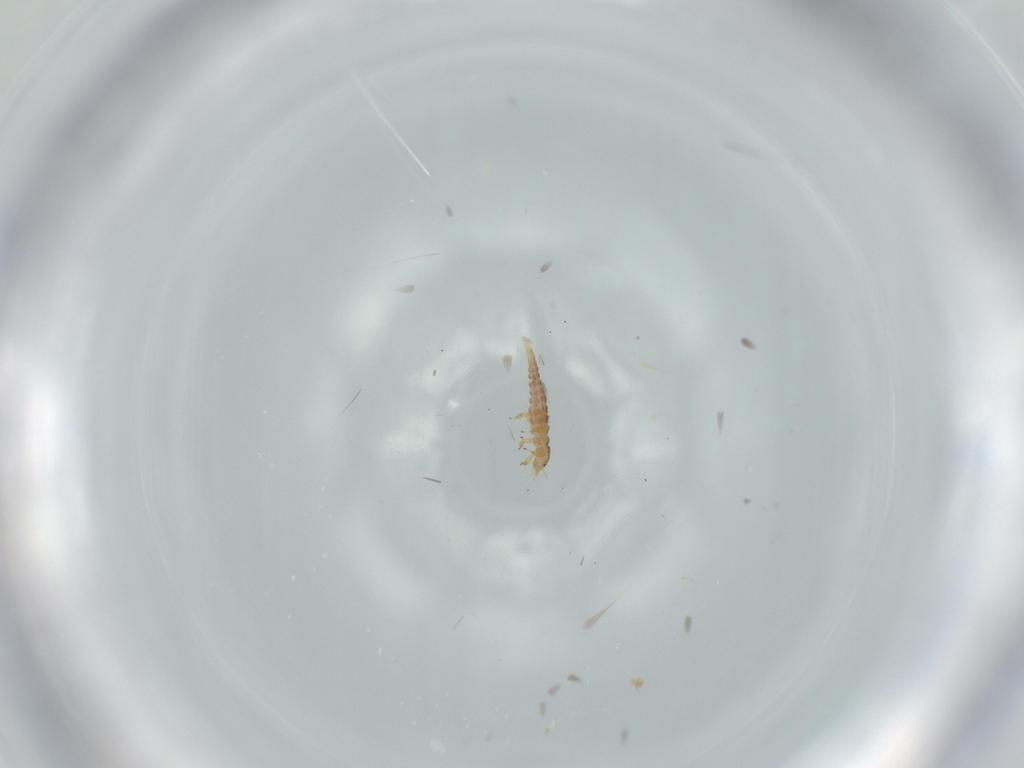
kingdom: Animalia
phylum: Arthropoda
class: Insecta
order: Neuroptera
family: Mantispidae
